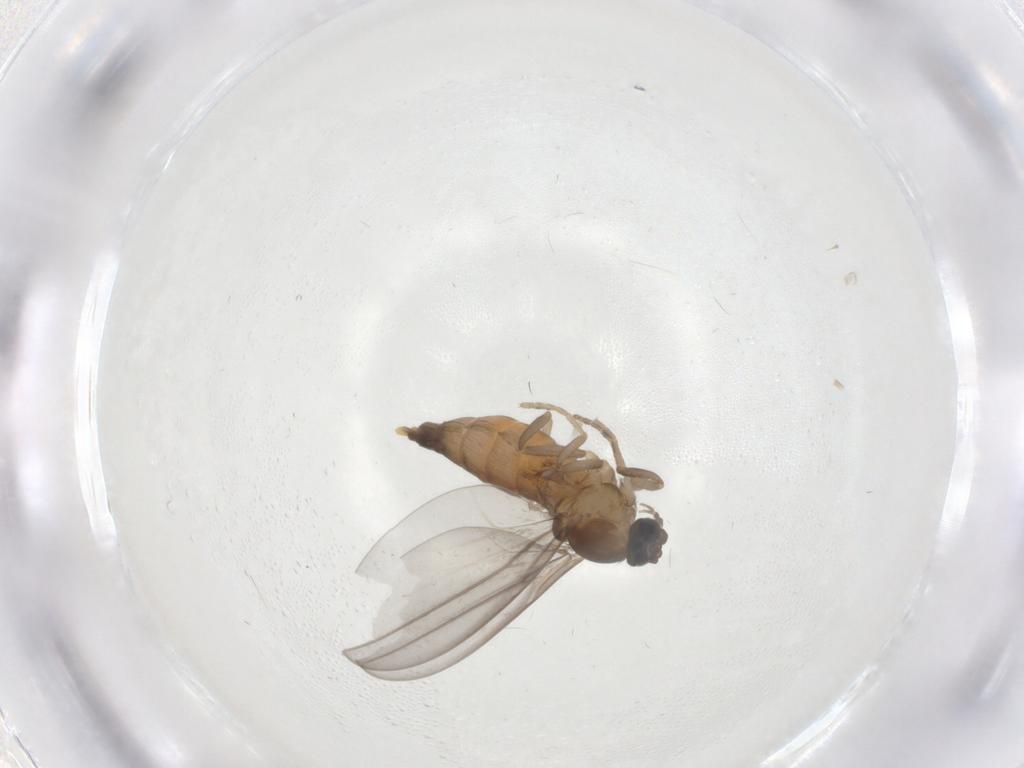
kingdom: Animalia
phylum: Arthropoda
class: Insecta
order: Diptera
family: Cecidomyiidae
